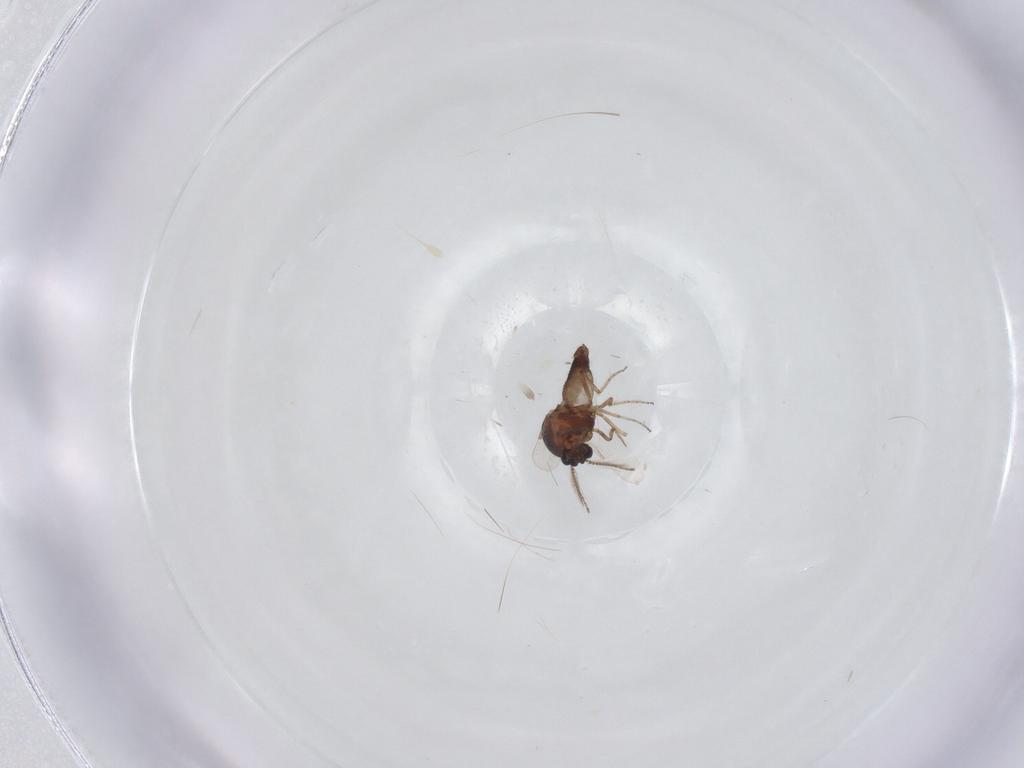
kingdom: Animalia
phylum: Arthropoda
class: Insecta
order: Diptera
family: Ceratopogonidae
